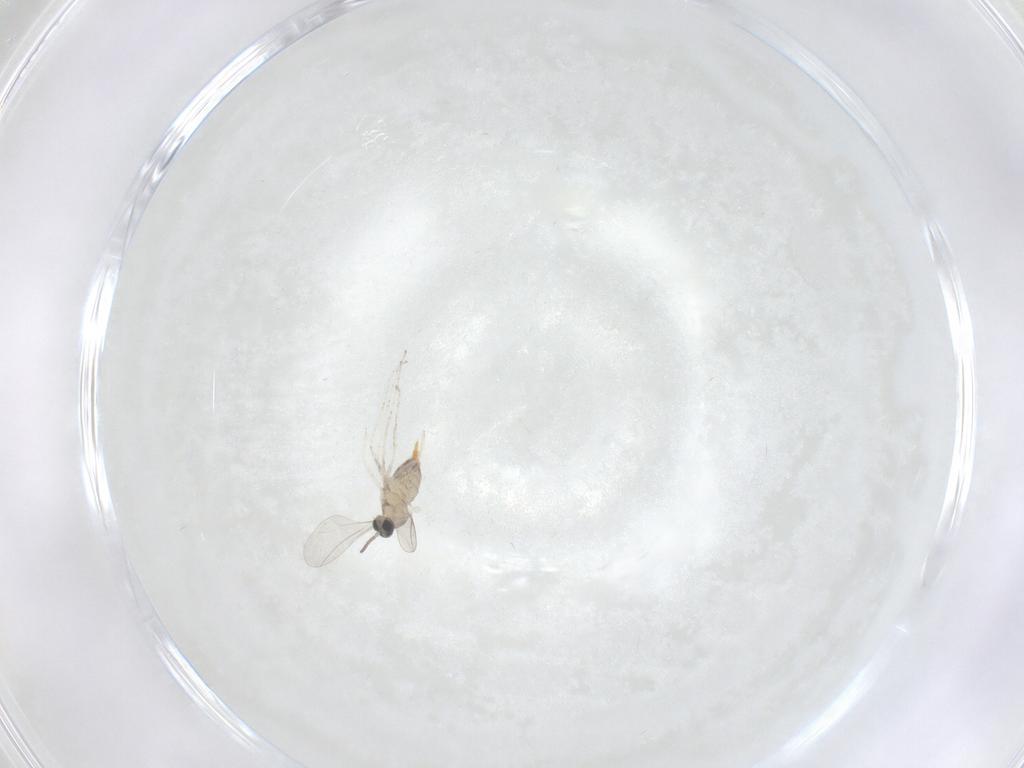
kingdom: Animalia
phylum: Arthropoda
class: Insecta
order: Diptera
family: Cecidomyiidae
